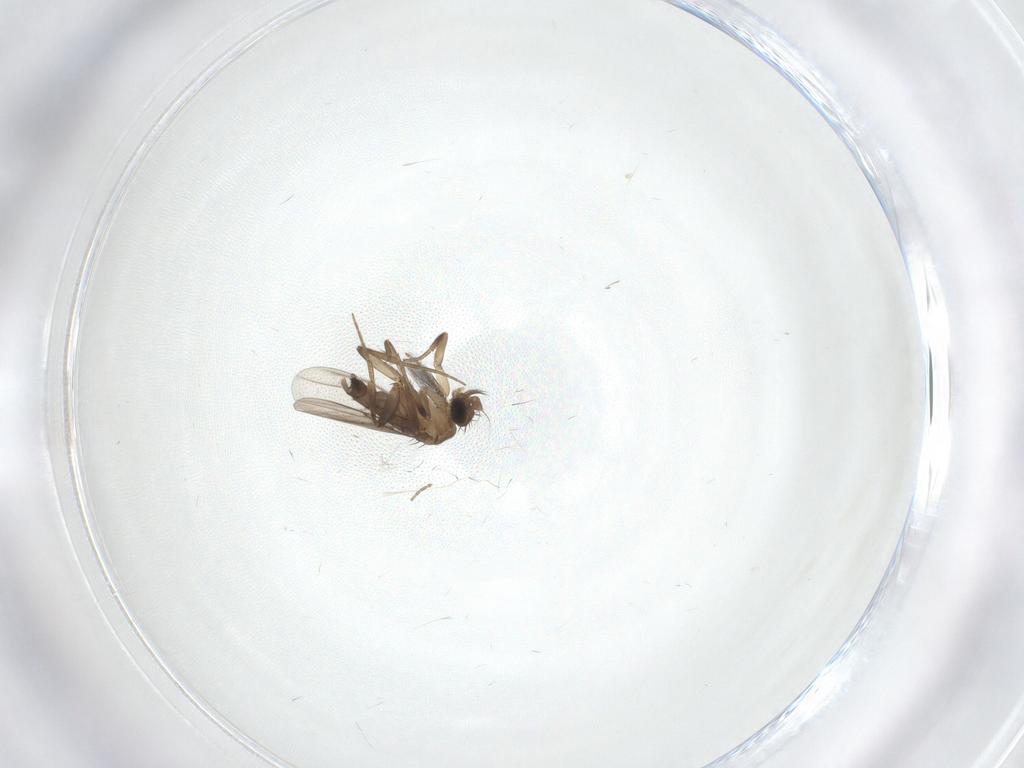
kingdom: Animalia
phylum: Arthropoda
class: Insecta
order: Diptera
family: Phoridae
